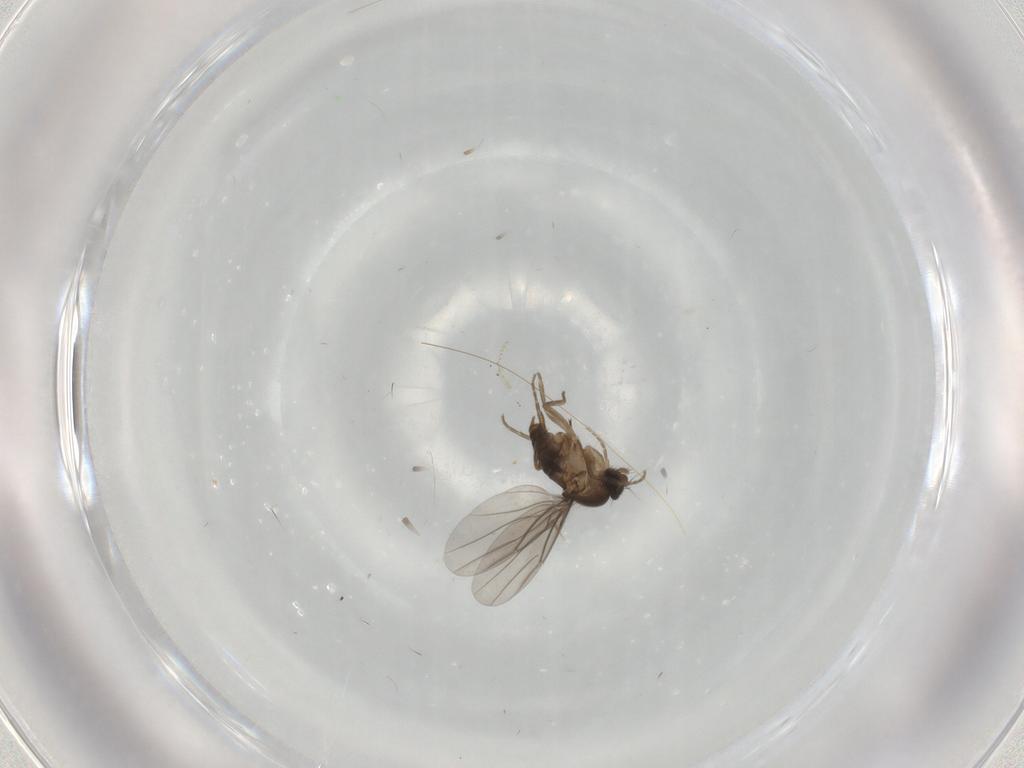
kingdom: Animalia
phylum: Arthropoda
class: Insecta
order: Diptera
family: Phoridae
